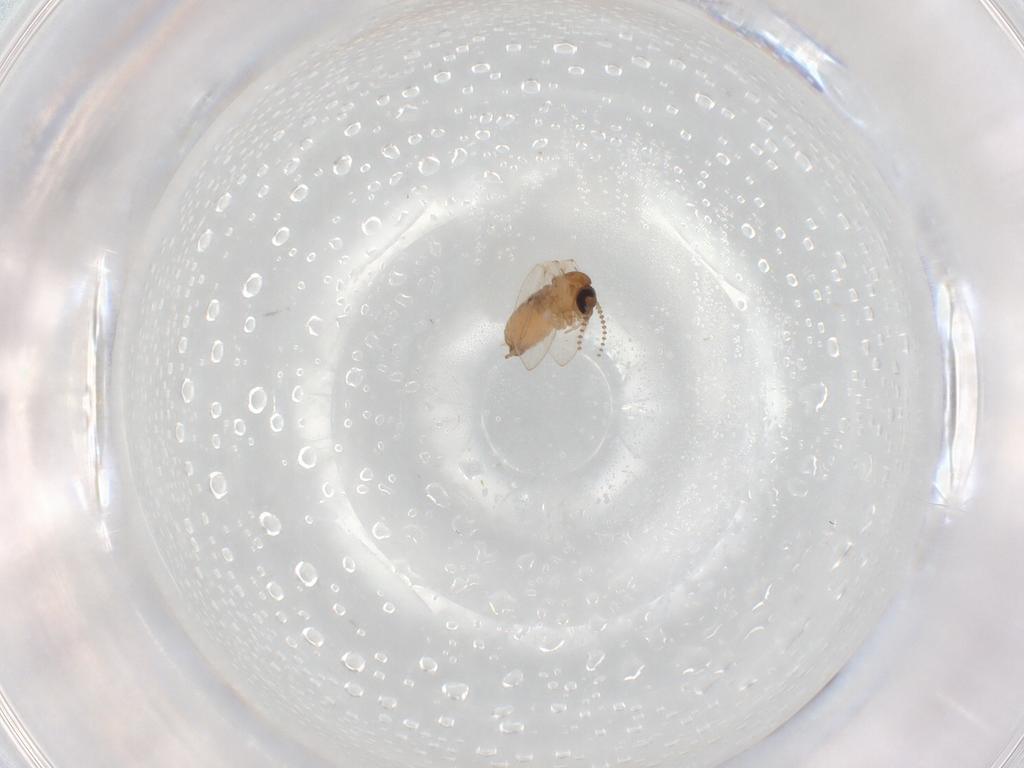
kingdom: Animalia
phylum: Arthropoda
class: Insecta
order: Diptera
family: Psychodidae
